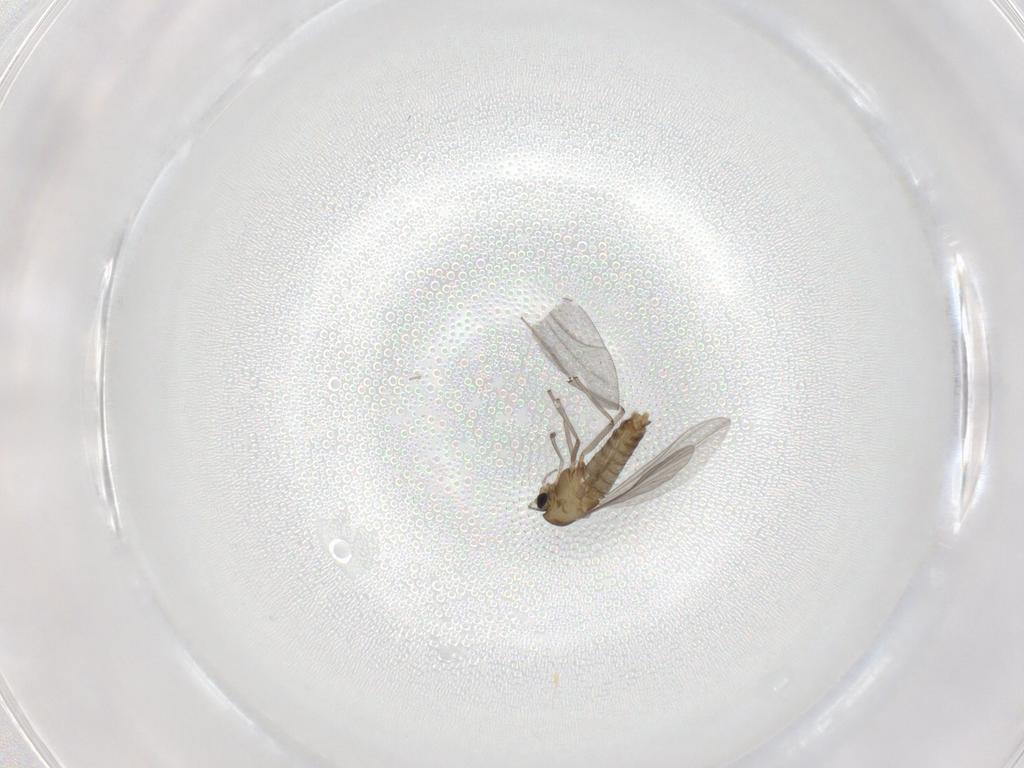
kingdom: Animalia
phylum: Arthropoda
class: Insecta
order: Diptera
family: Chironomidae
